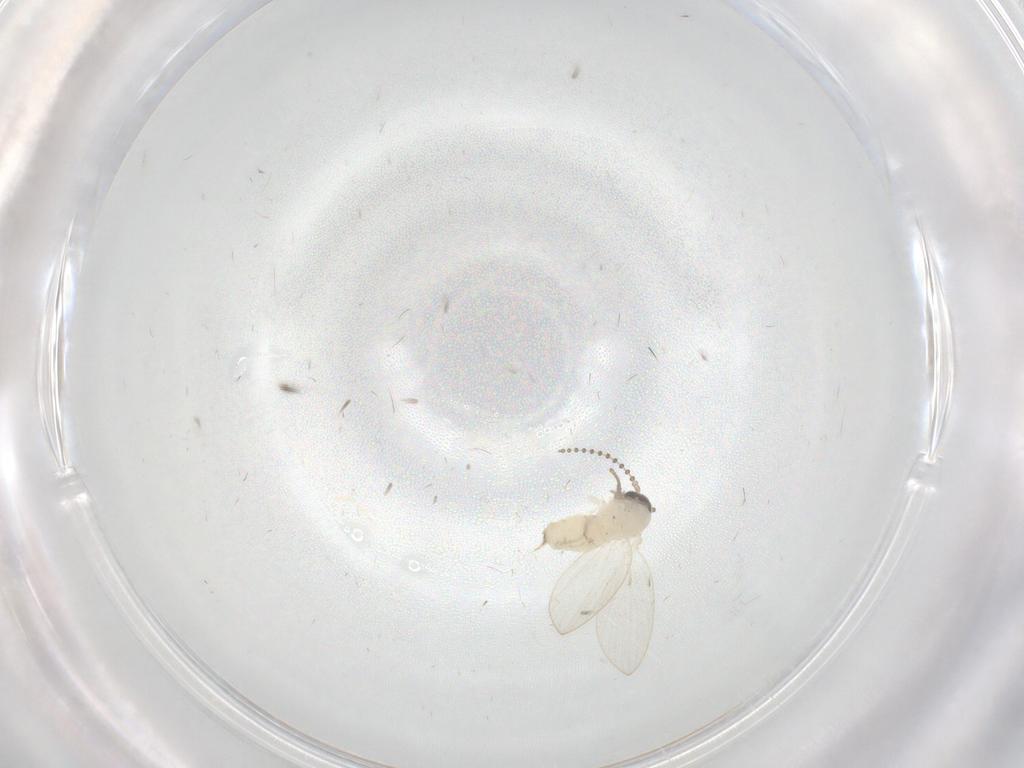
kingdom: Animalia
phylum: Arthropoda
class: Insecta
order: Diptera
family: Psychodidae
